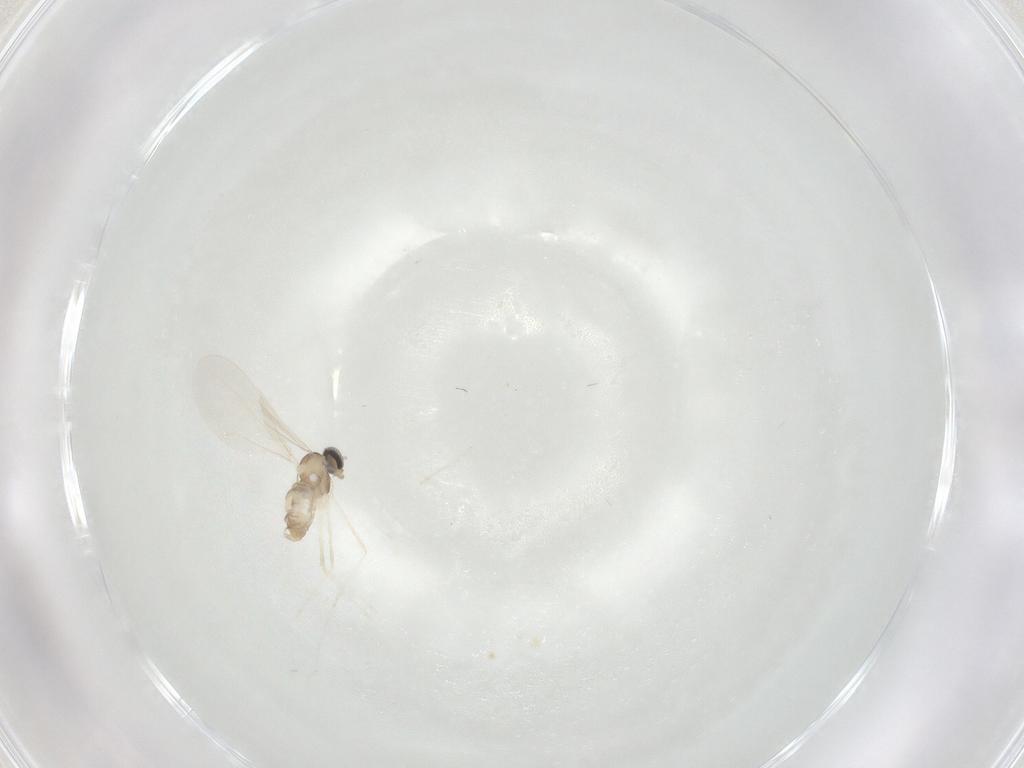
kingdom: Animalia
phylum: Arthropoda
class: Insecta
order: Diptera
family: Cecidomyiidae
